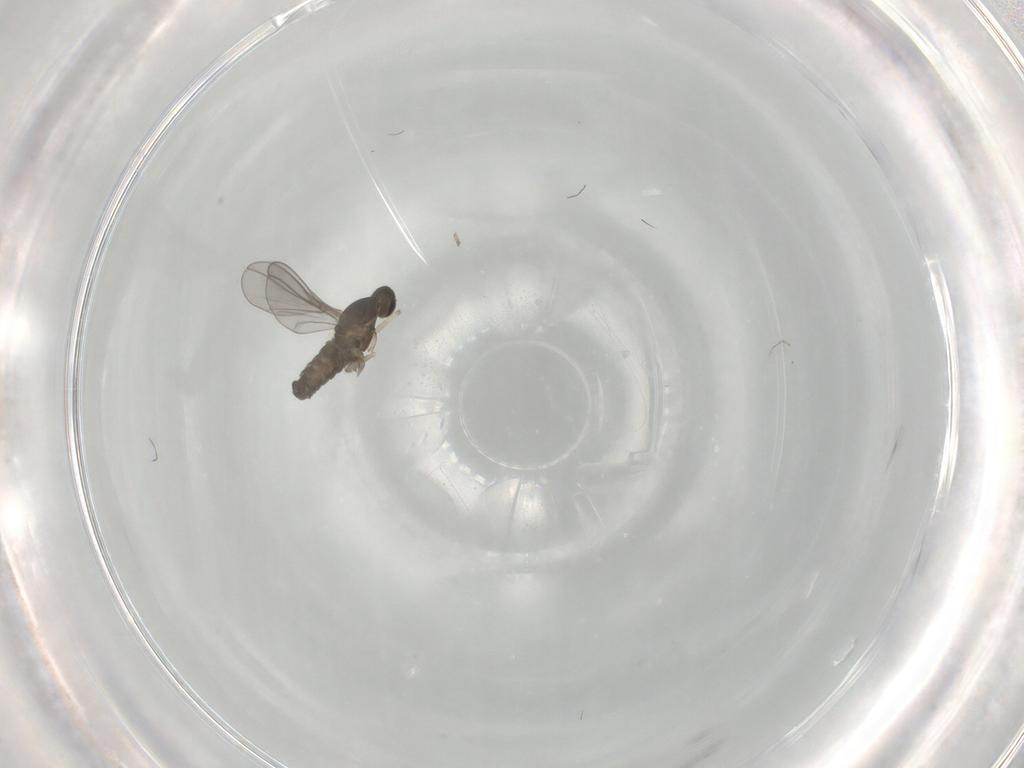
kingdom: Animalia
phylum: Arthropoda
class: Insecta
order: Diptera
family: Cecidomyiidae
